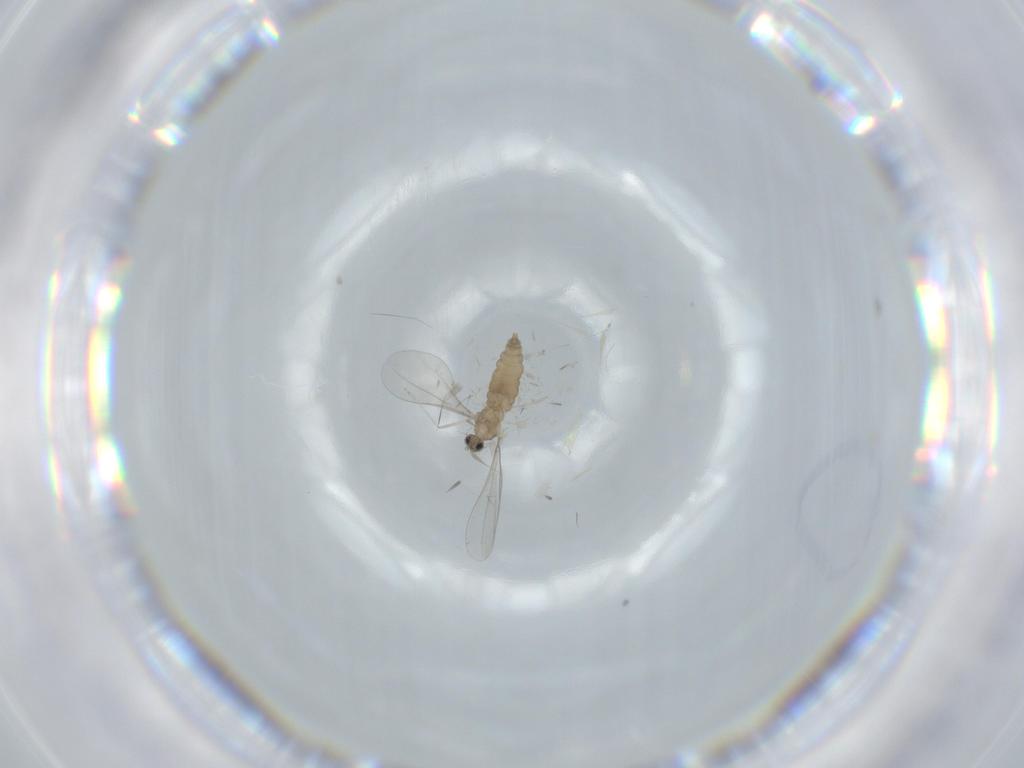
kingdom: Animalia
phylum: Arthropoda
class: Insecta
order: Diptera
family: Cecidomyiidae
